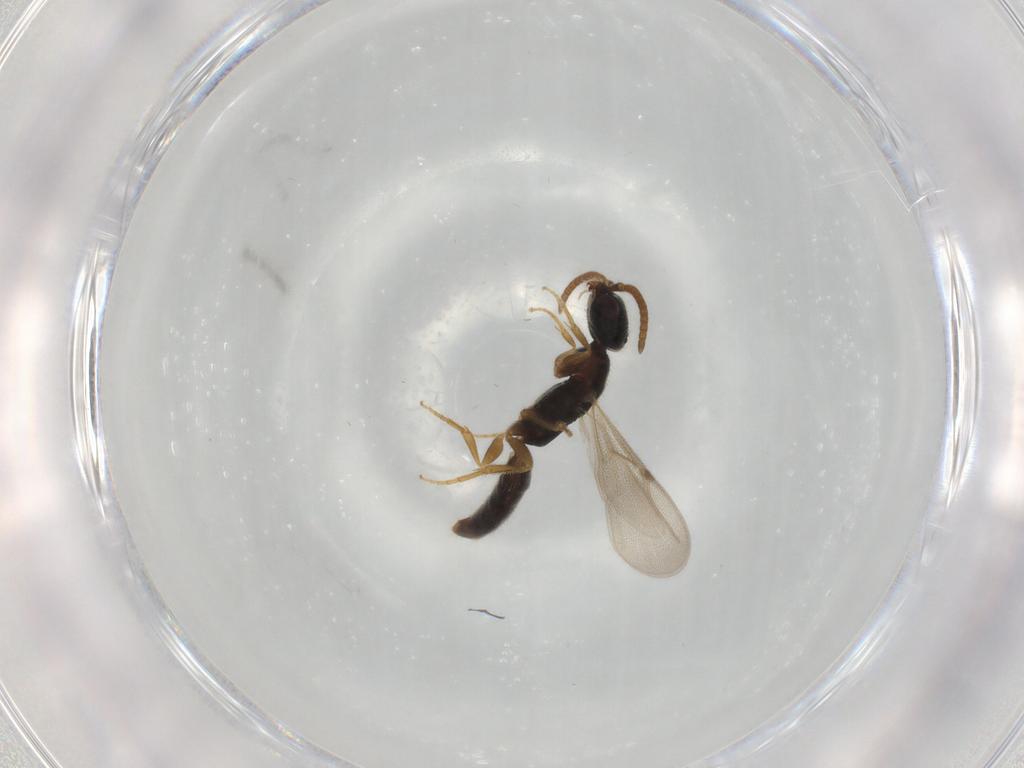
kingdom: Animalia
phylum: Arthropoda
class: Insecta
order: Hymenoptera
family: Bethylidae
